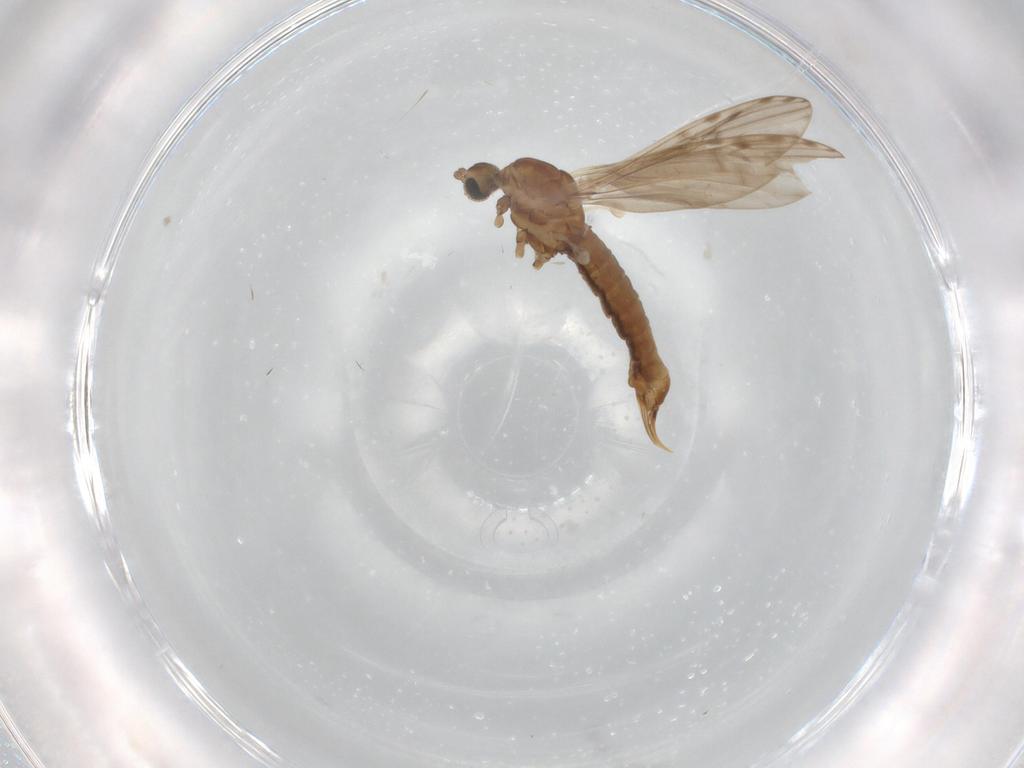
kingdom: Animalia
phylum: Arthropoda
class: Insecta
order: Diptera
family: Limoniidae
